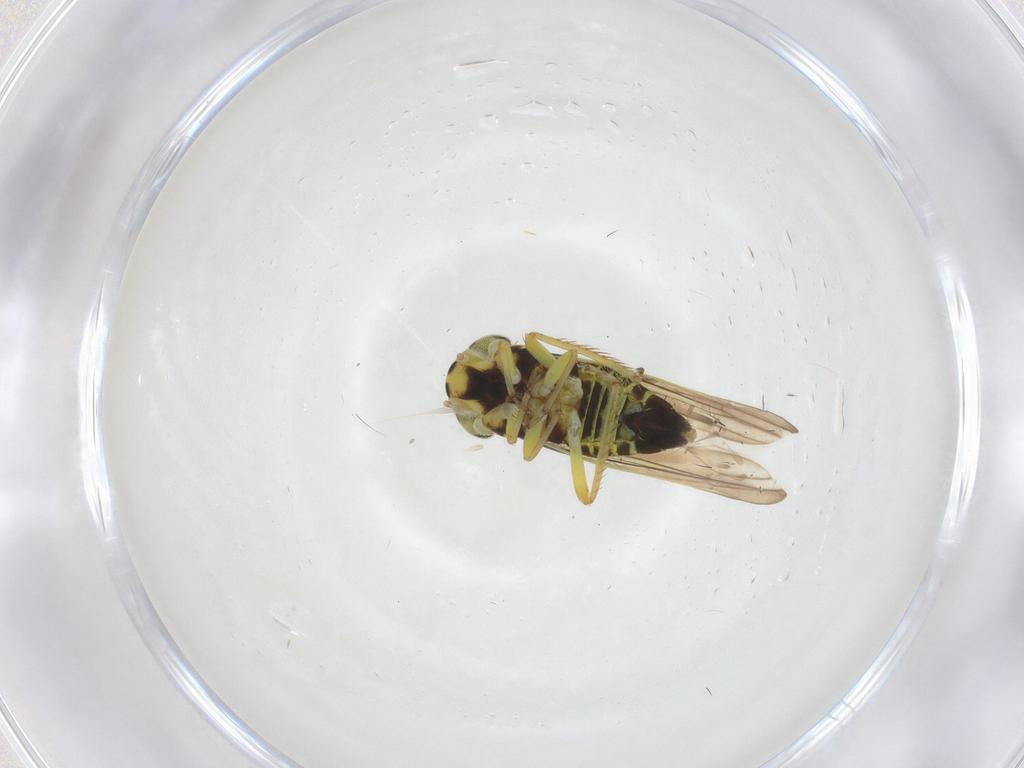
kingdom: Animalia
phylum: Arthropoda
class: Insecta
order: Hemiptera
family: Cicadellidae
